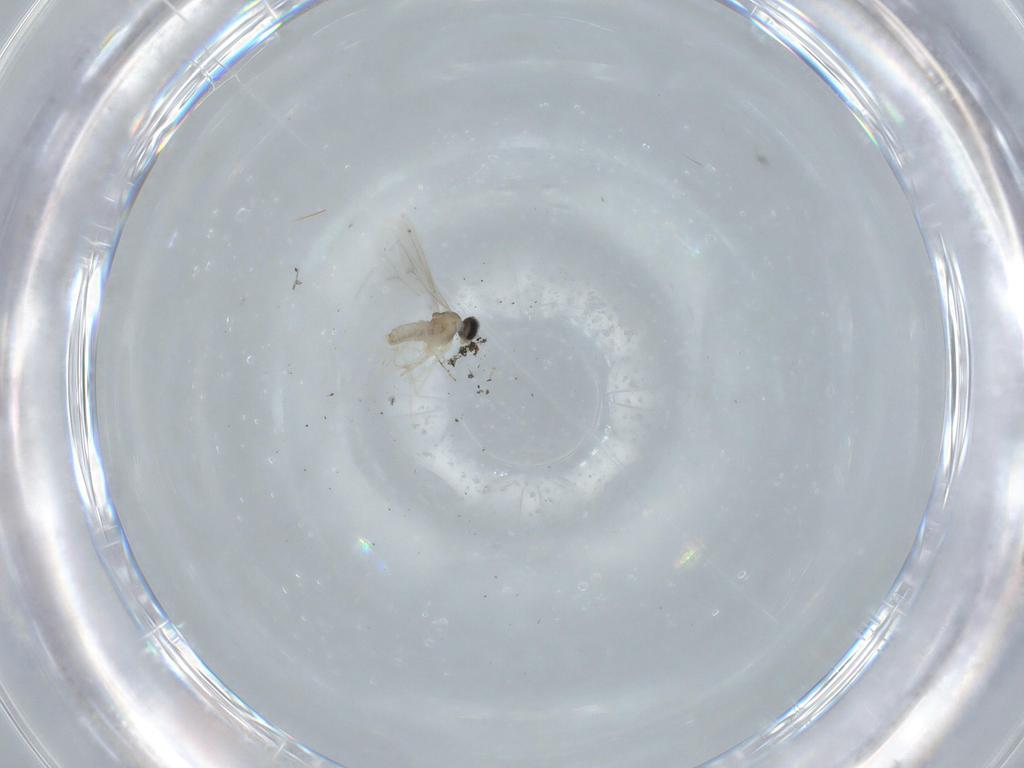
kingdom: Animalia
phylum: Arthropoda
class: Insecta
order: Diptera
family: Cecidomyiidae
